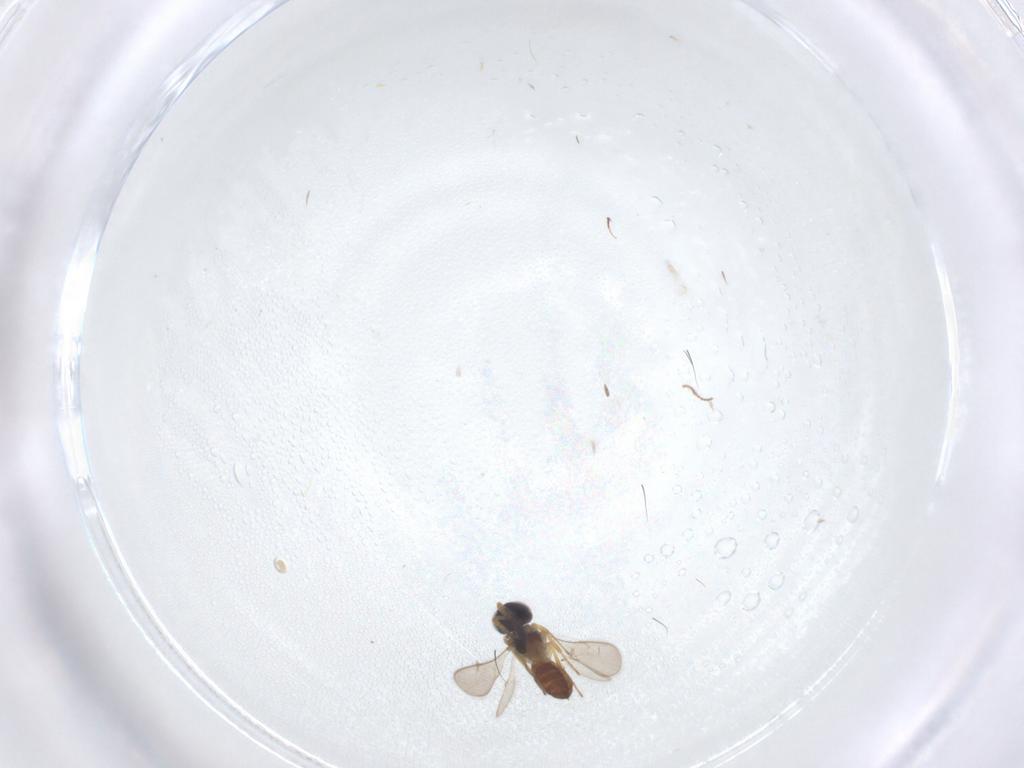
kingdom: Animalia
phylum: Arthropoda
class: Insecta
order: Hymenoptera
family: Scelionidae
